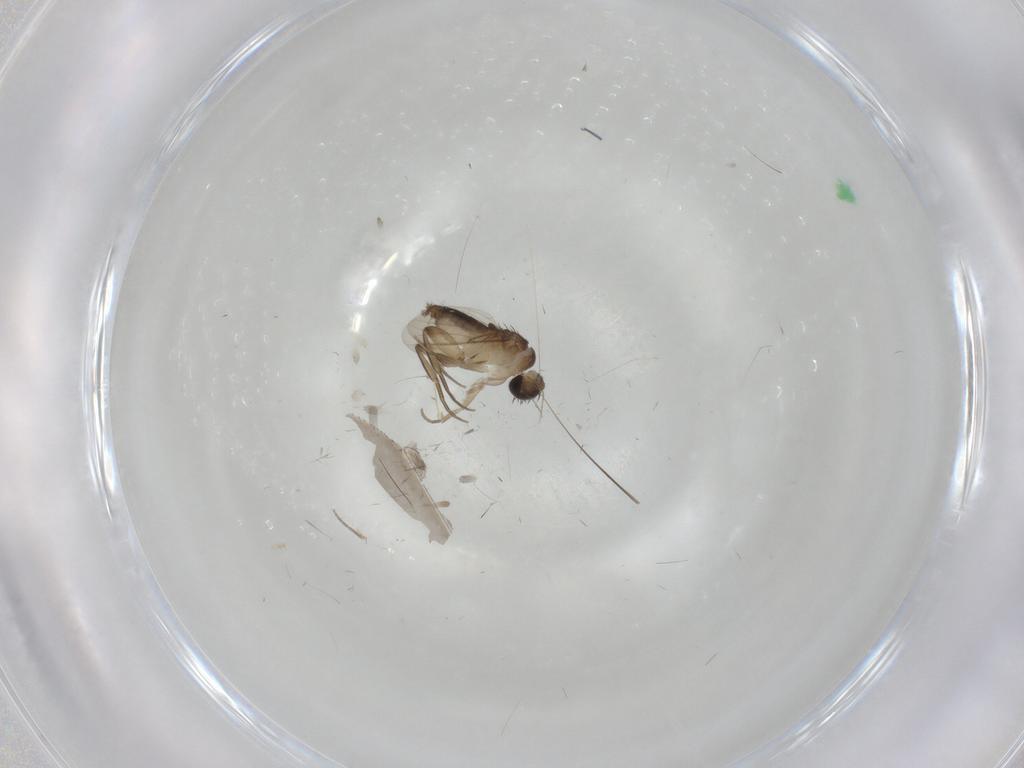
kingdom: Animalia
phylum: Arthropoda
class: Insecta
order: Diptera
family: Phoridae
